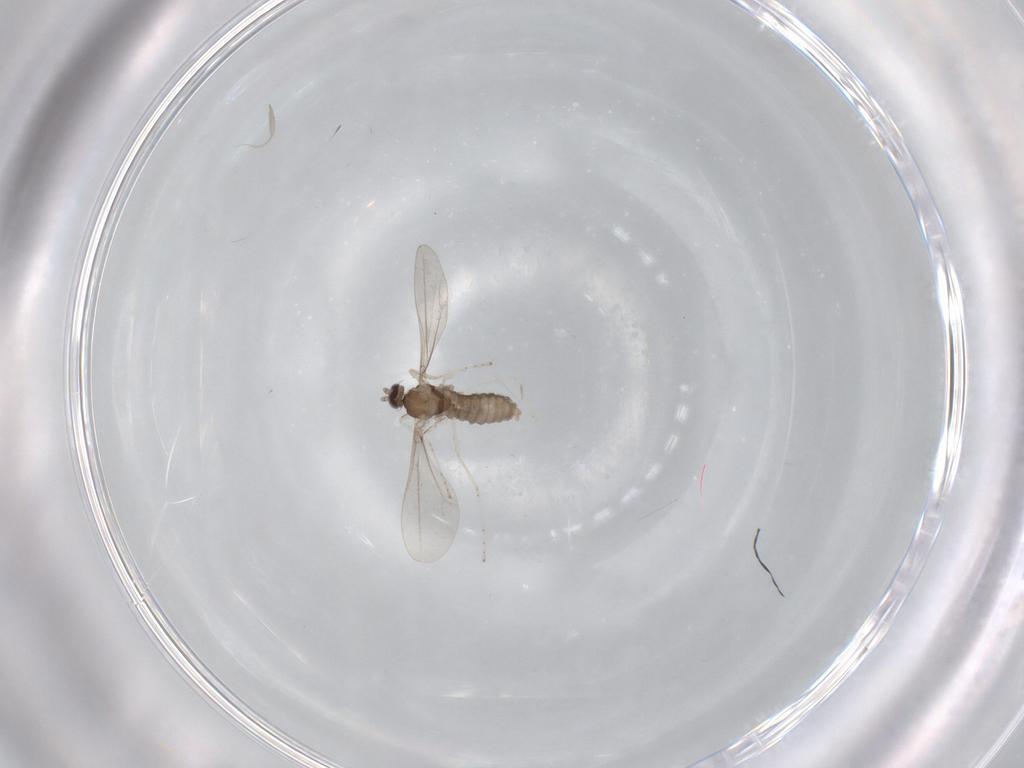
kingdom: Animalia
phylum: Arthropoda
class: Insecta
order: Diptera
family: Cecidomyiidae
